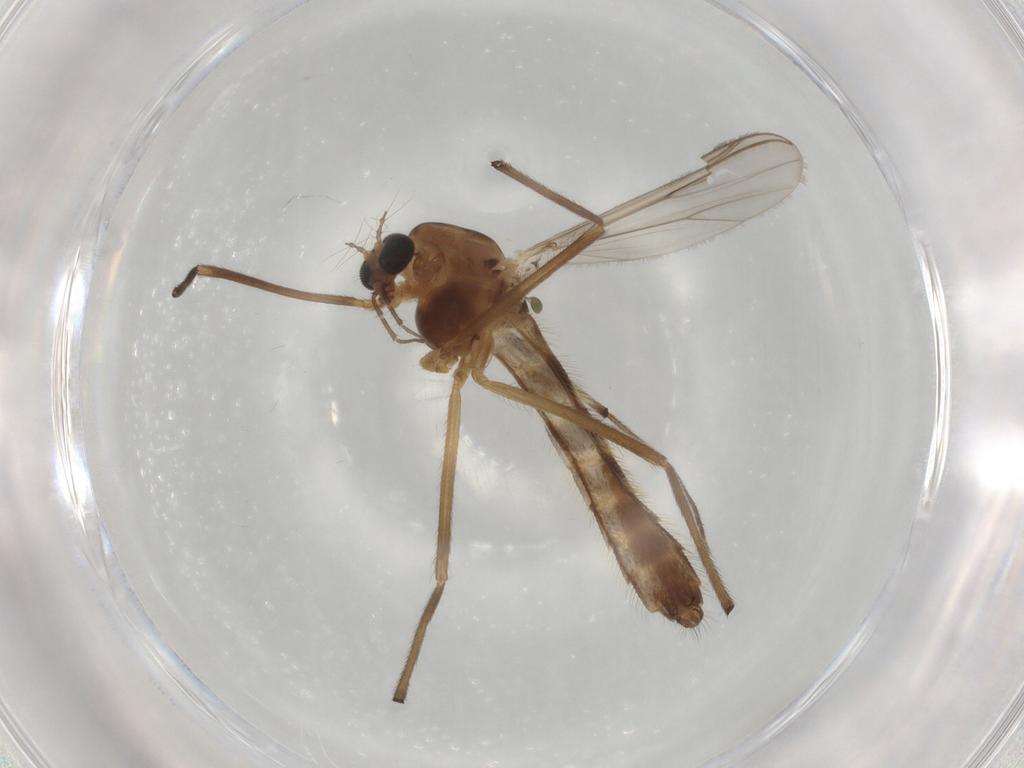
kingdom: Animalia
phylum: Arthropoda
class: Insecta
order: Diptera
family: Chironomidae
